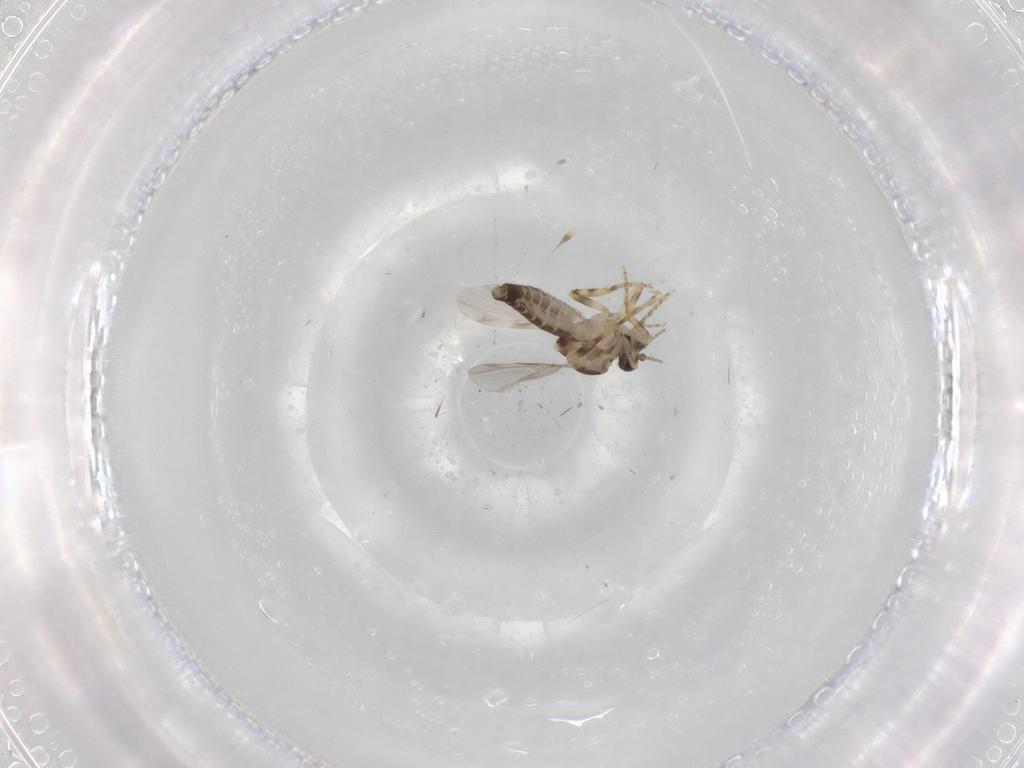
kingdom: Animalia
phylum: Arthropoda
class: Insecta
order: Diptera
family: Ceratopogonidae
